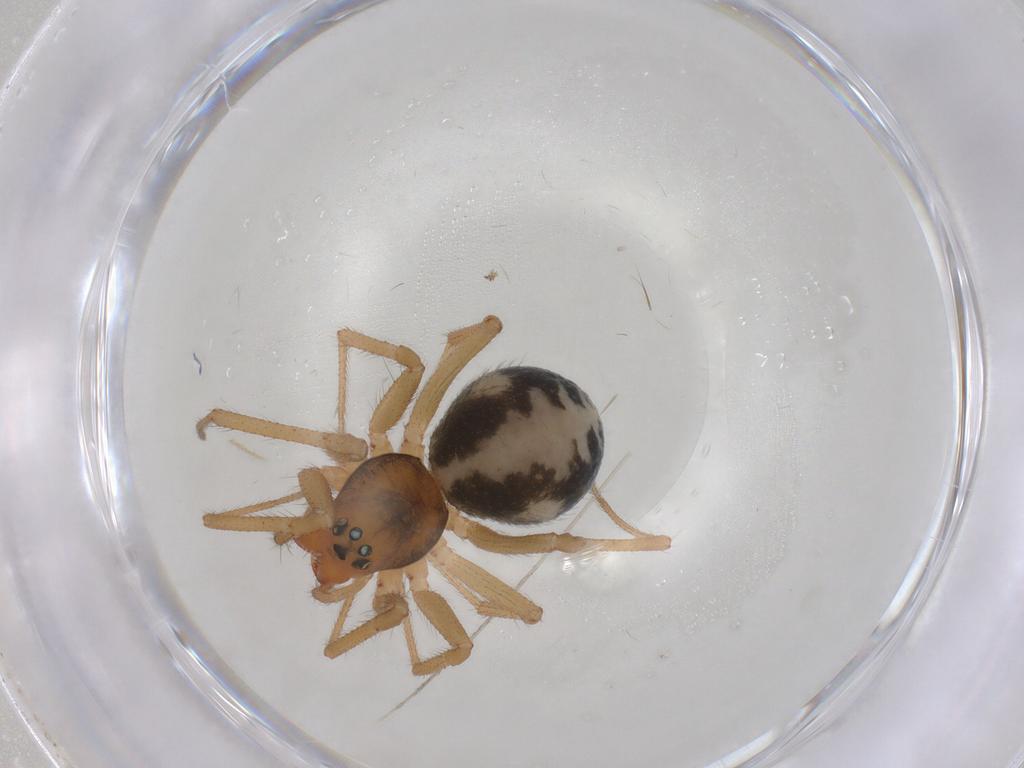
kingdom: Animalia
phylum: Arthropoda
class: Arachnida
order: Araneae
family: Linyphiidae
